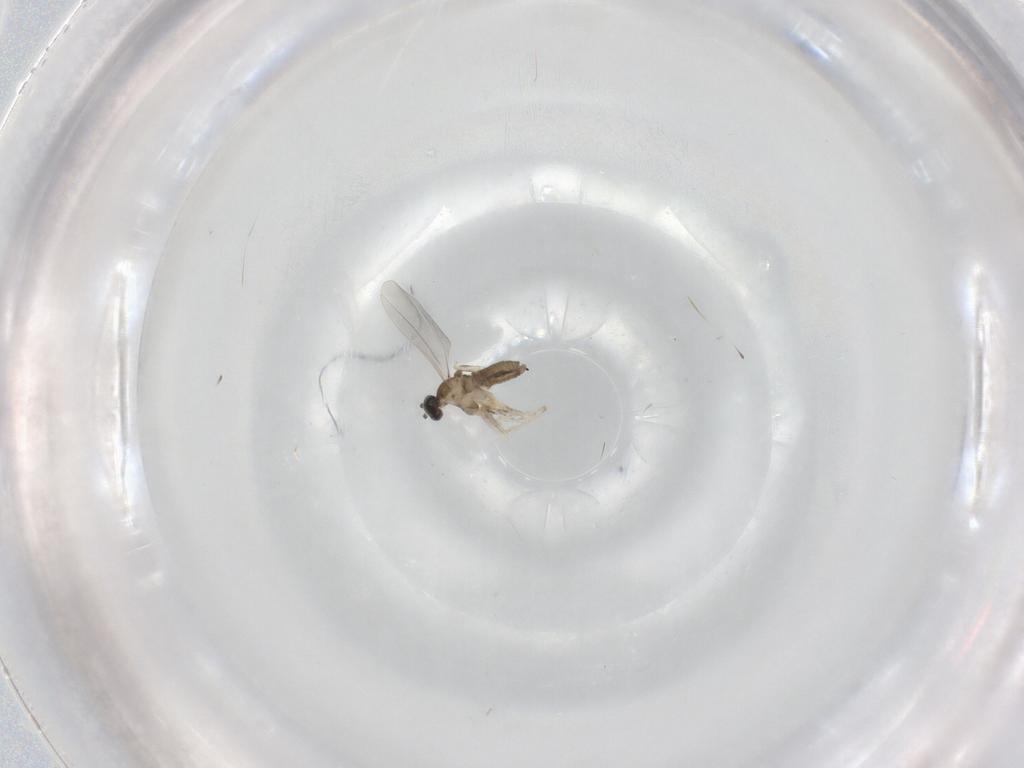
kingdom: Animalia
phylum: Arthropoda
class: Insecta
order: Diptera
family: Cecidomyiidae
